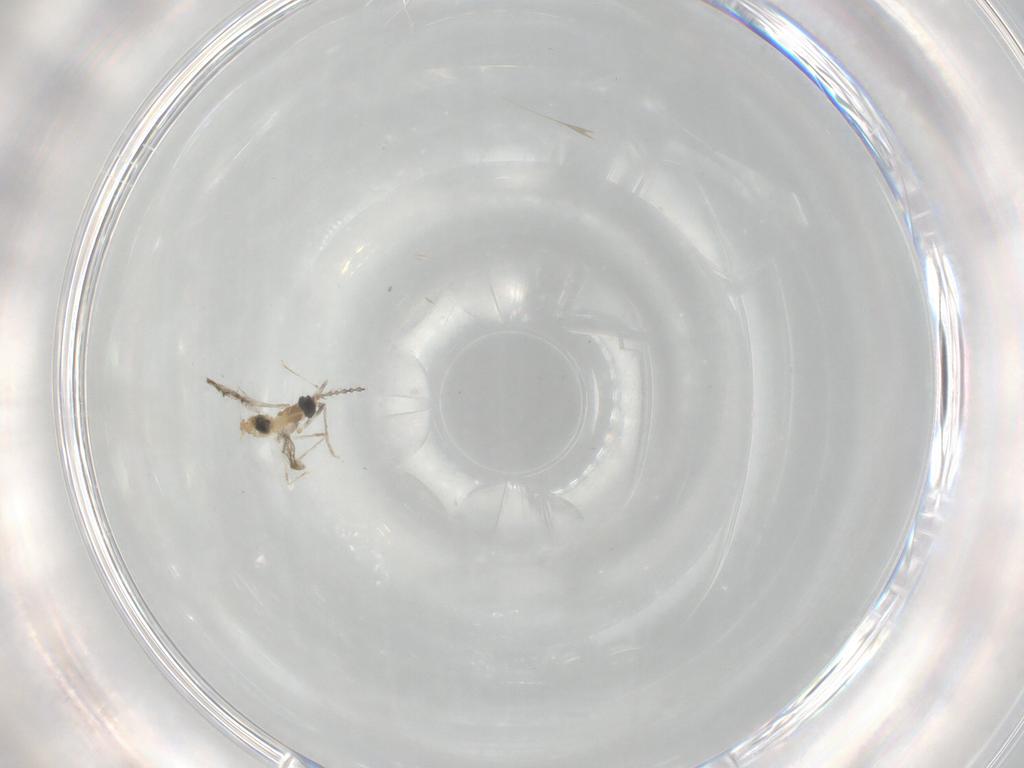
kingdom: Animalia
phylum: Arthropoda
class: Insecta
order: Diptera
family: Cecidomyiidae
